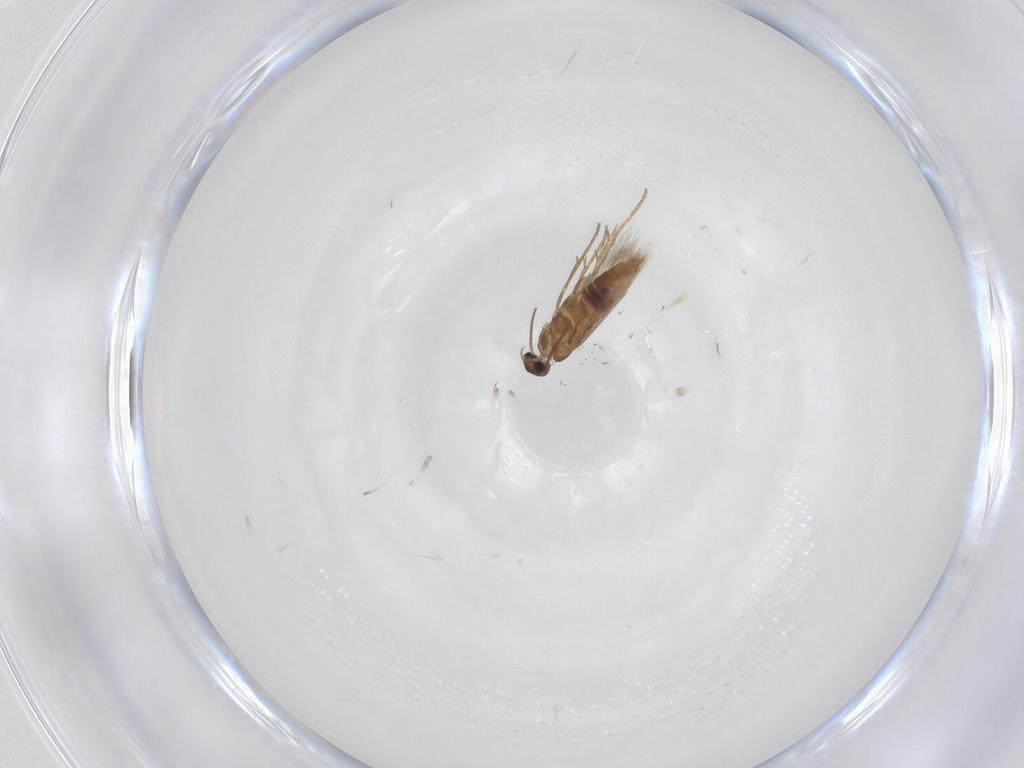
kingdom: Animalia
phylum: Arthropoda
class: Insecta
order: Lepidoptera
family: Heliozelidae
